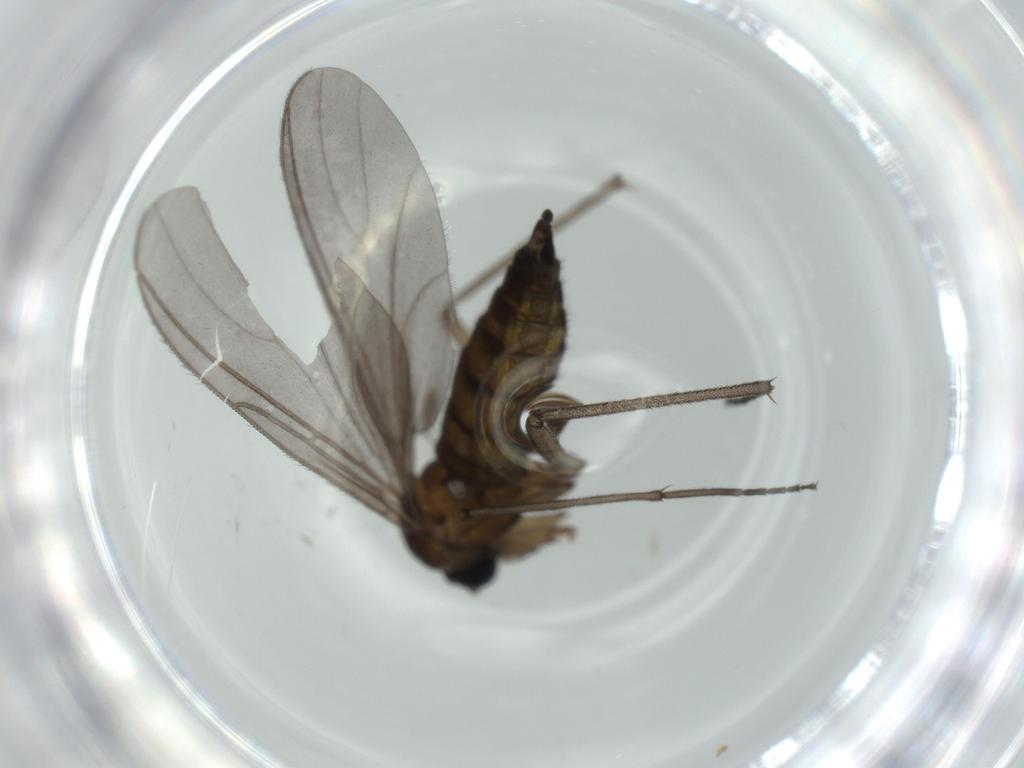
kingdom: Animalia
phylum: Arthropoda
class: Insecta
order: Diptera
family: Sciaridae
